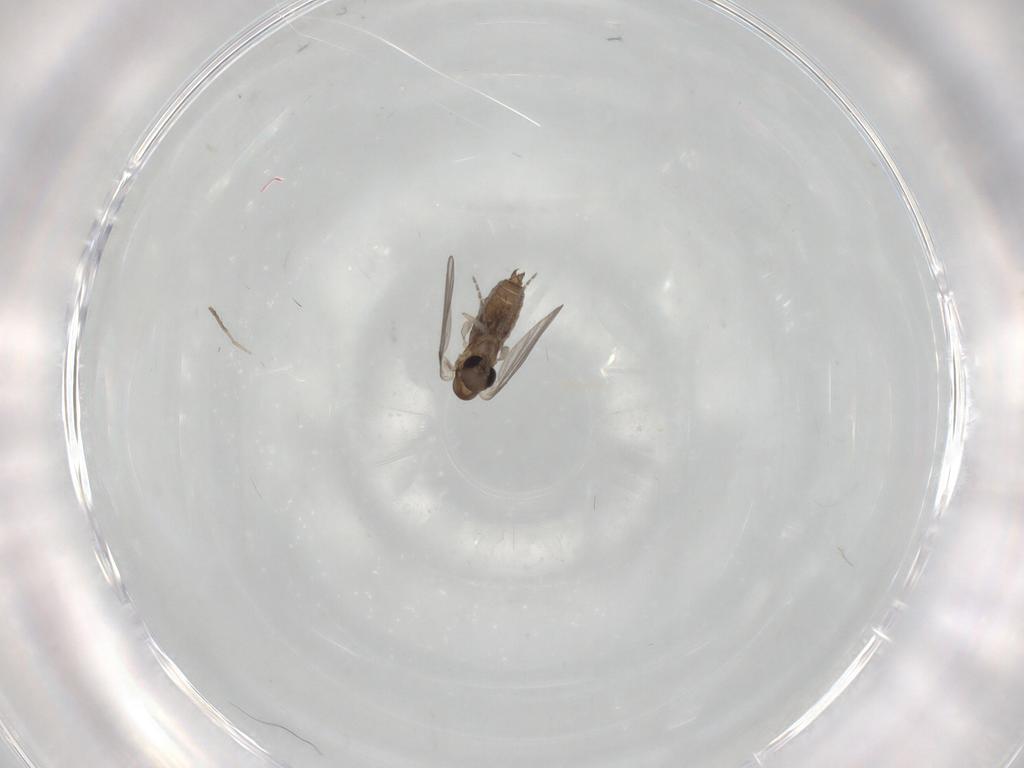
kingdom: Animalia
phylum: Arthropoda
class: Insecta
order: Diptera
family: Phoridae
